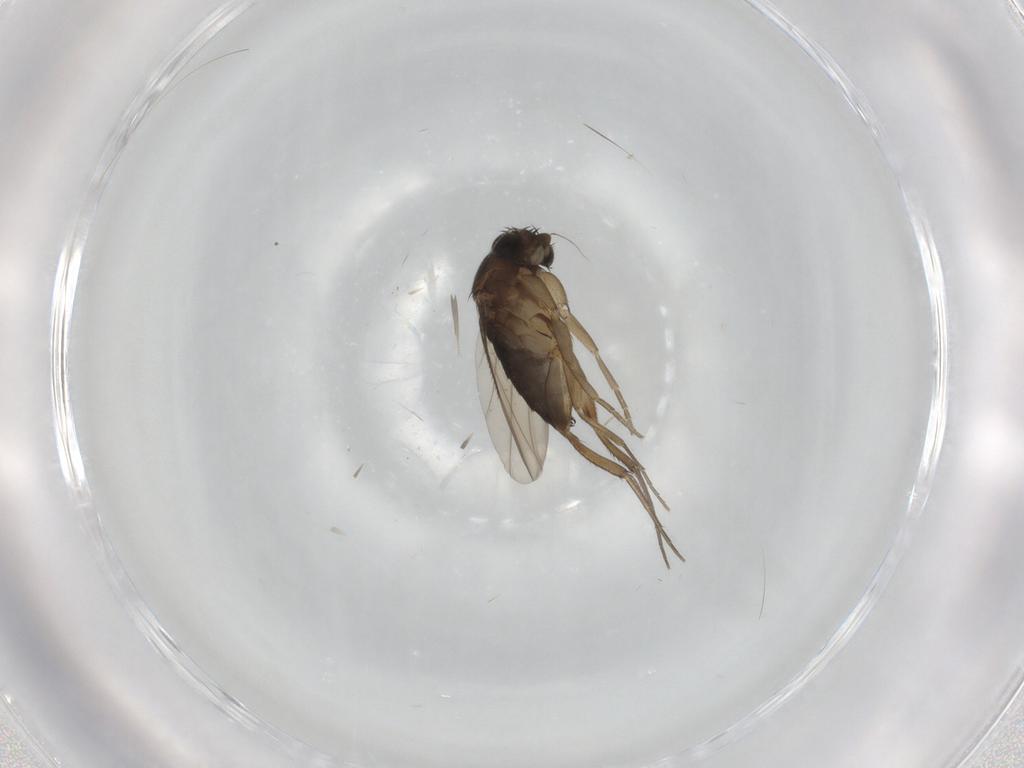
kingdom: Animalia
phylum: Arthropoda
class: Insecta
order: Diptera
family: Phoridae
